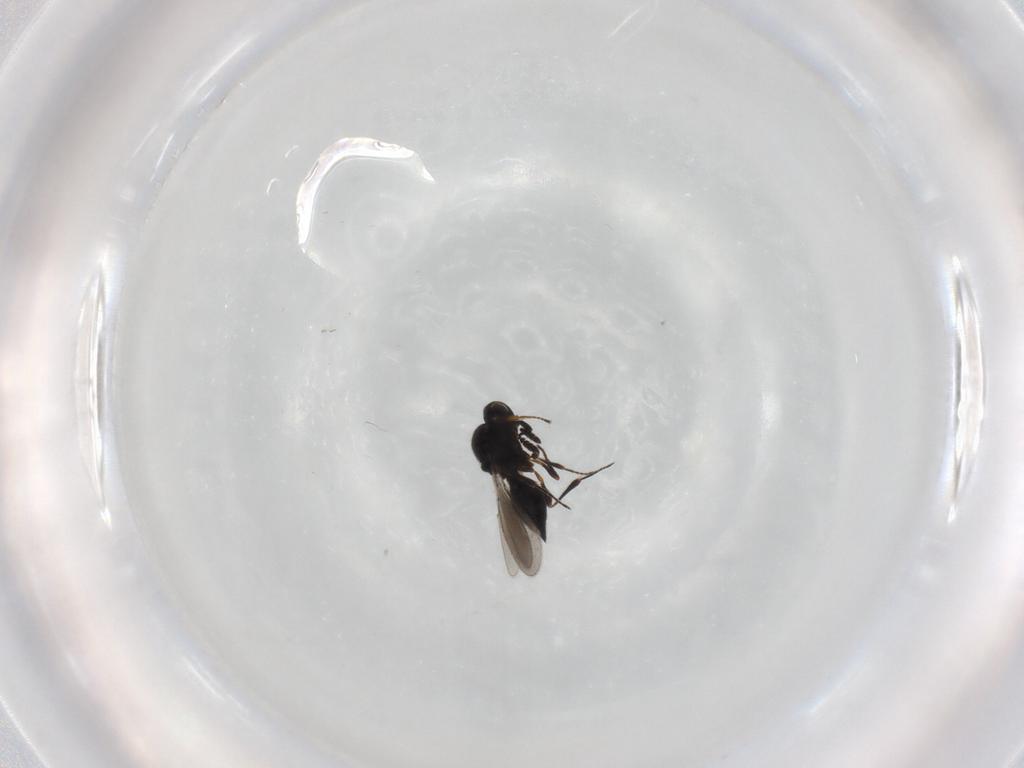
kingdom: Animalia
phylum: Arthropoda
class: Insecta
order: Hymenoptera
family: Platygastridae
